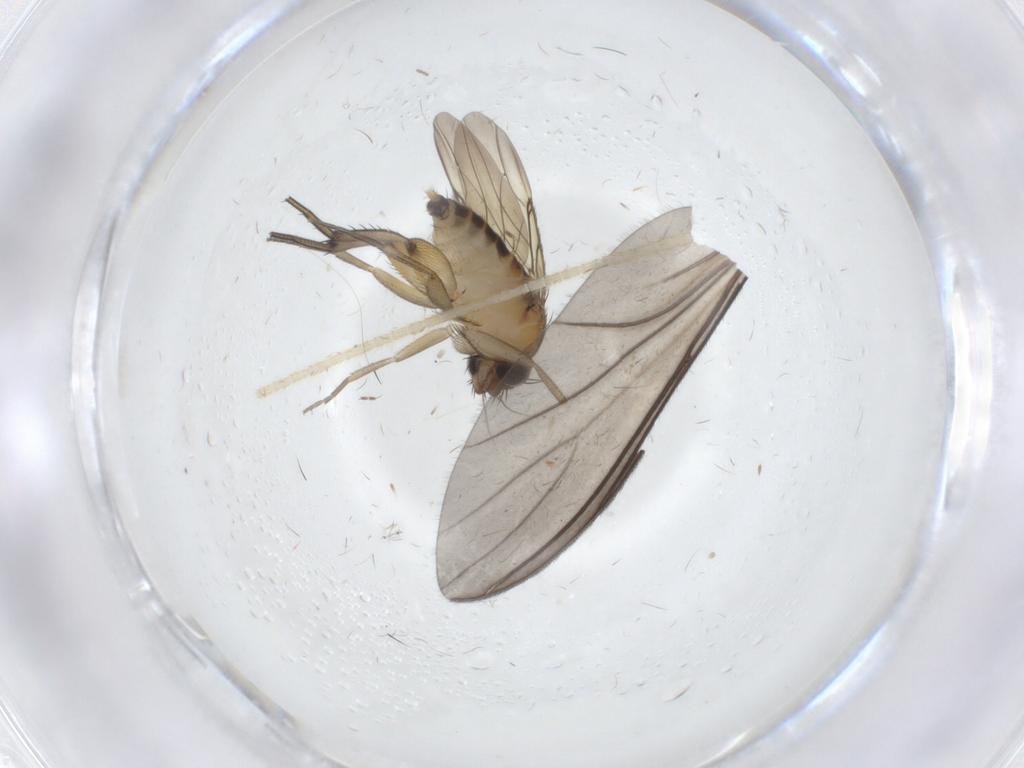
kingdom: Animalia
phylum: Arthropoda
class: Insecta
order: Diptera
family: Phoridae
